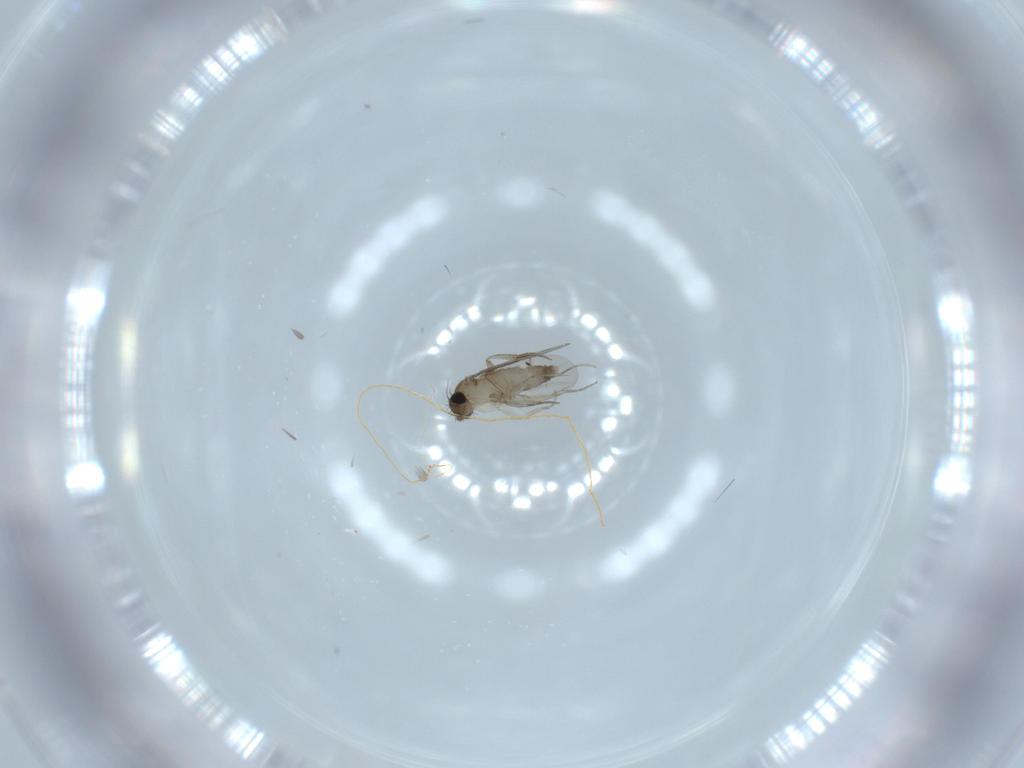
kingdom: Animalia
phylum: Arthropoda
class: Insecta
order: Diptera
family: Phoridae
